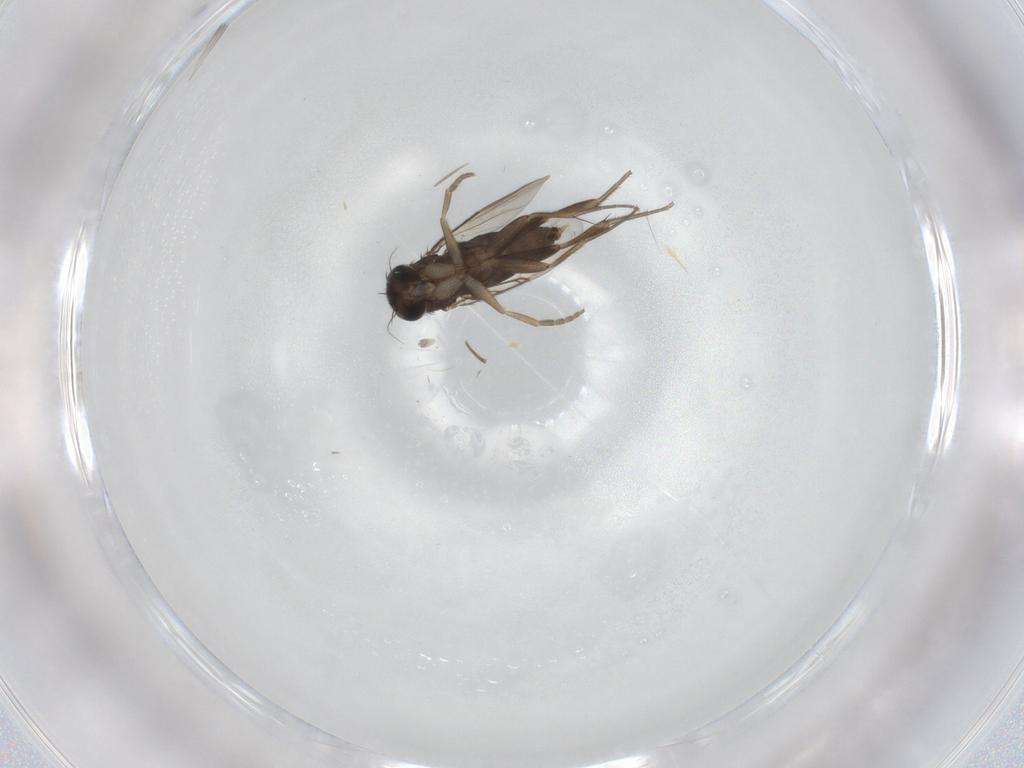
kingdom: Animalia
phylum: Arthropoda
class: Insecta
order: Diptera
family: Phoridae
